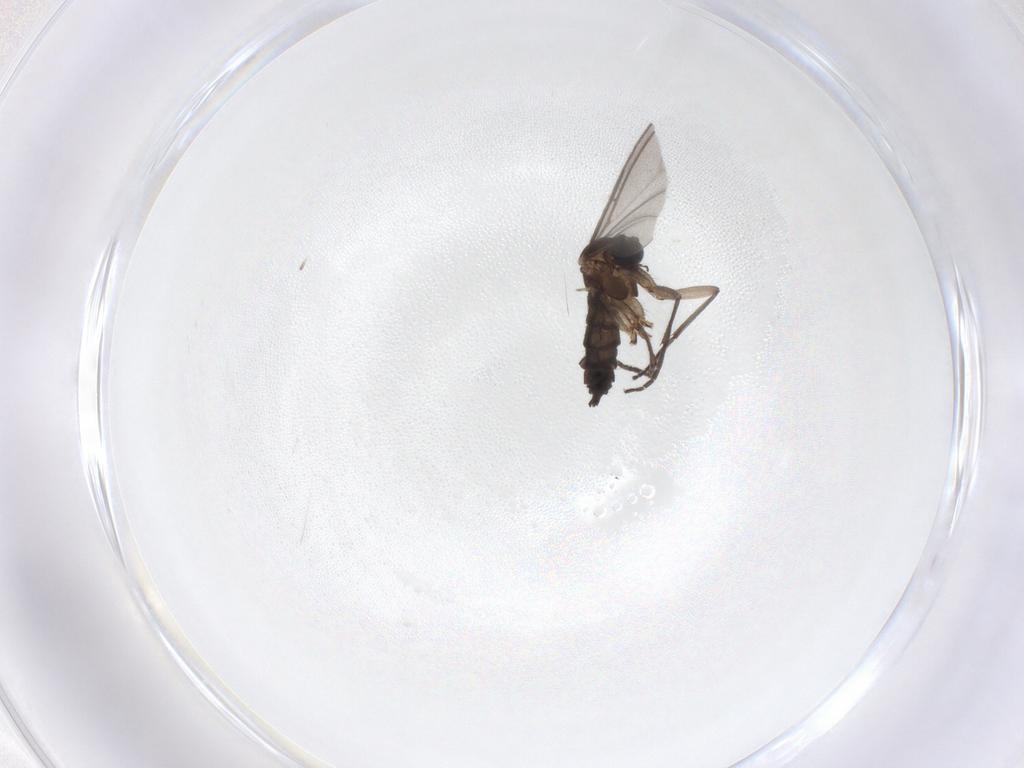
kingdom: Animalia
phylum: Arthropoda
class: Insecta
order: Diptera
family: Sciaridae
